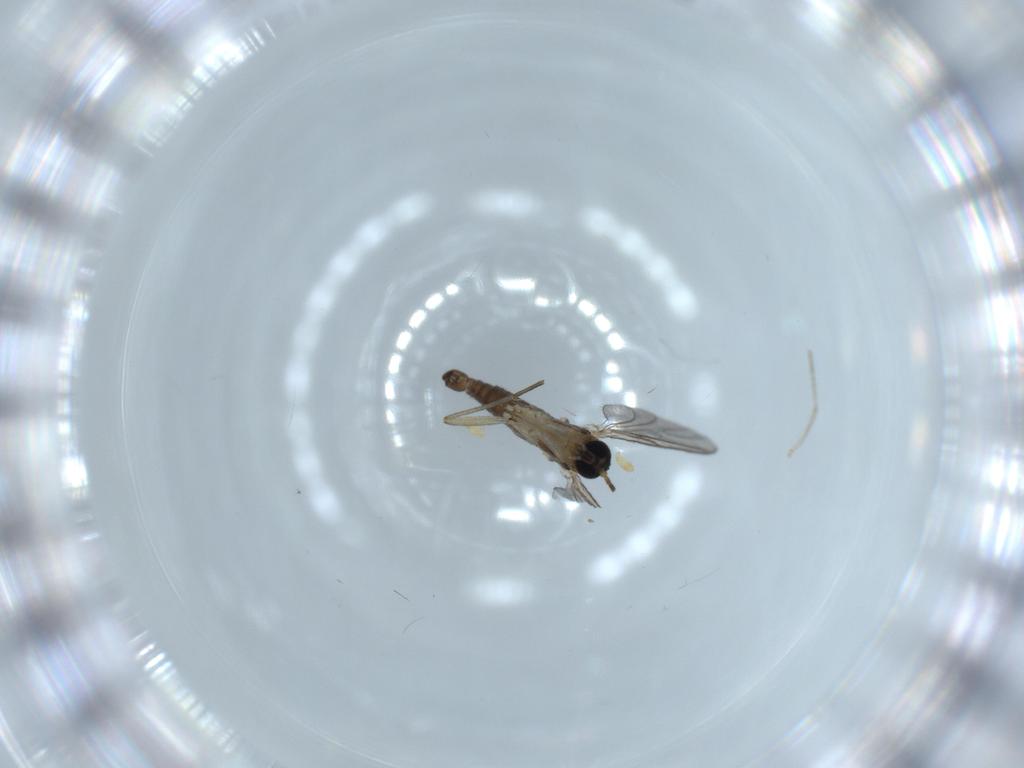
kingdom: Animalia
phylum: Arthropoda
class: Insecta
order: Diptera
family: Sciaridae
